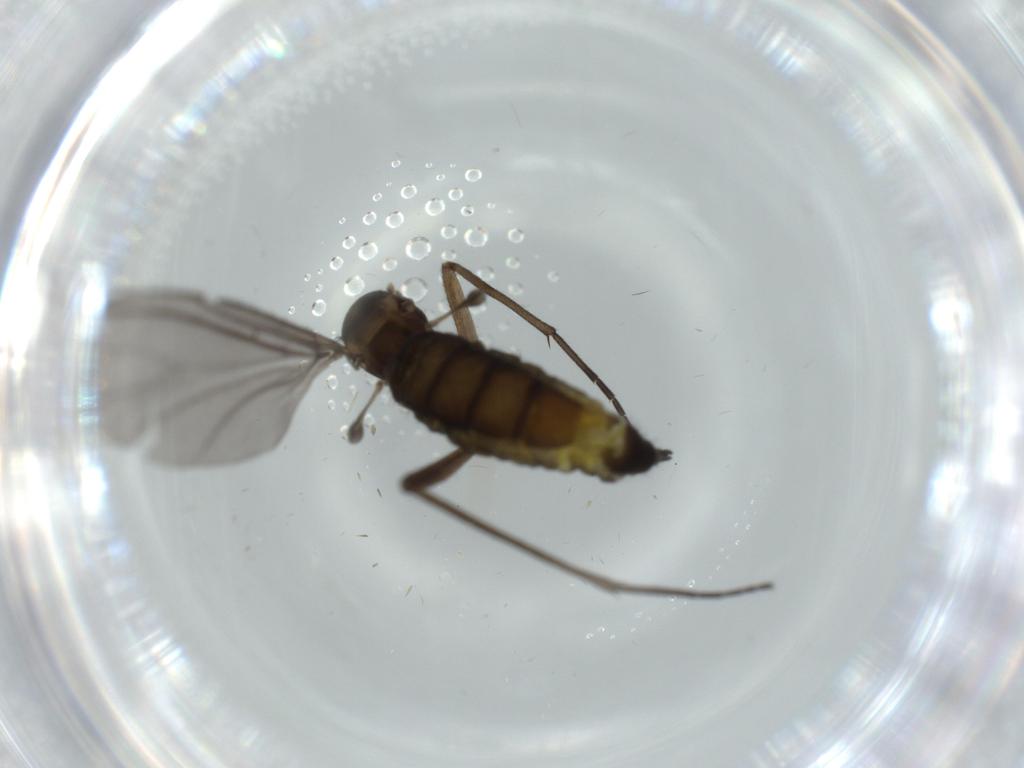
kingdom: Animalia
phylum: Arthropoda
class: Insecta
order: Diptera
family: Sciaridae
